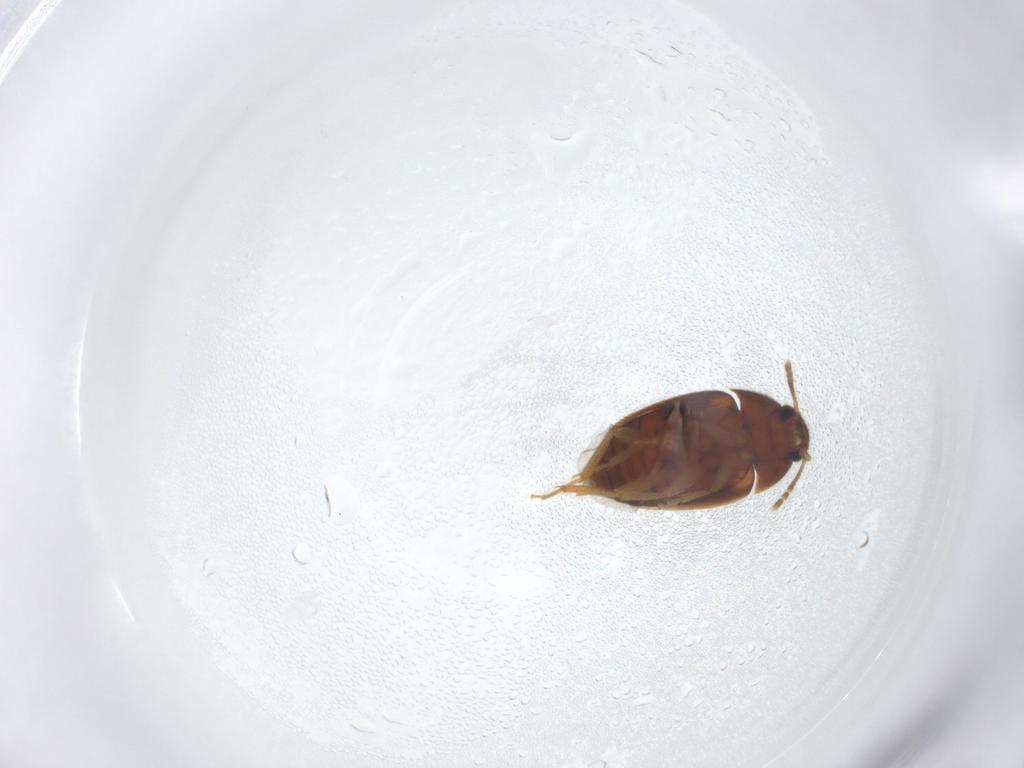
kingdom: Animalia
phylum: Arthropoda
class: Insecta
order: Coleoptera
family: Mycetophagidae
